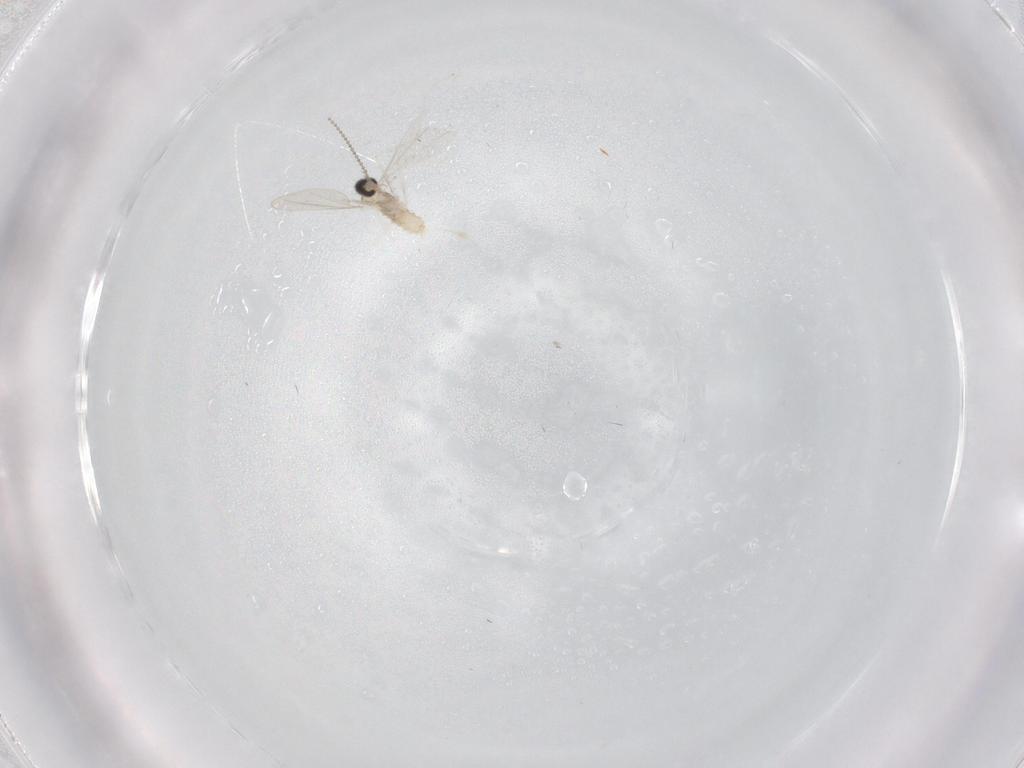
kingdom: Animalia
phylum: Arthropoda
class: Insecta
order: Diptera
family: Cecidomyiidae
